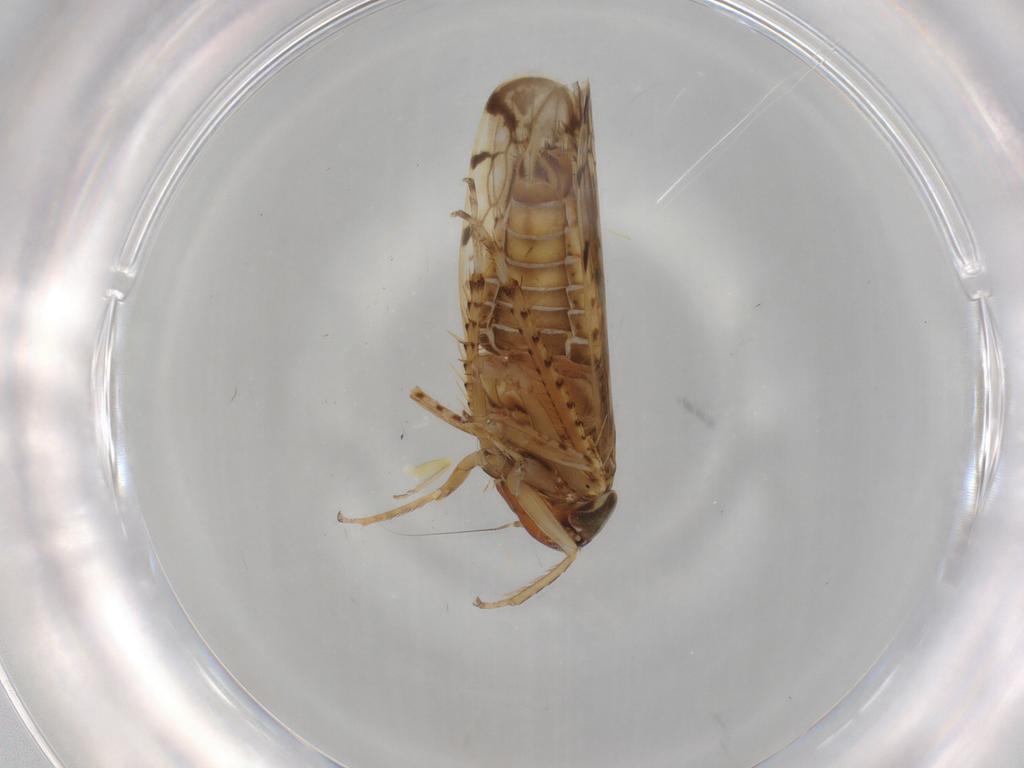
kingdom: Animalia
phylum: Arthropoda
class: Insecta
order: Hemiptera
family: Cicadellidae
